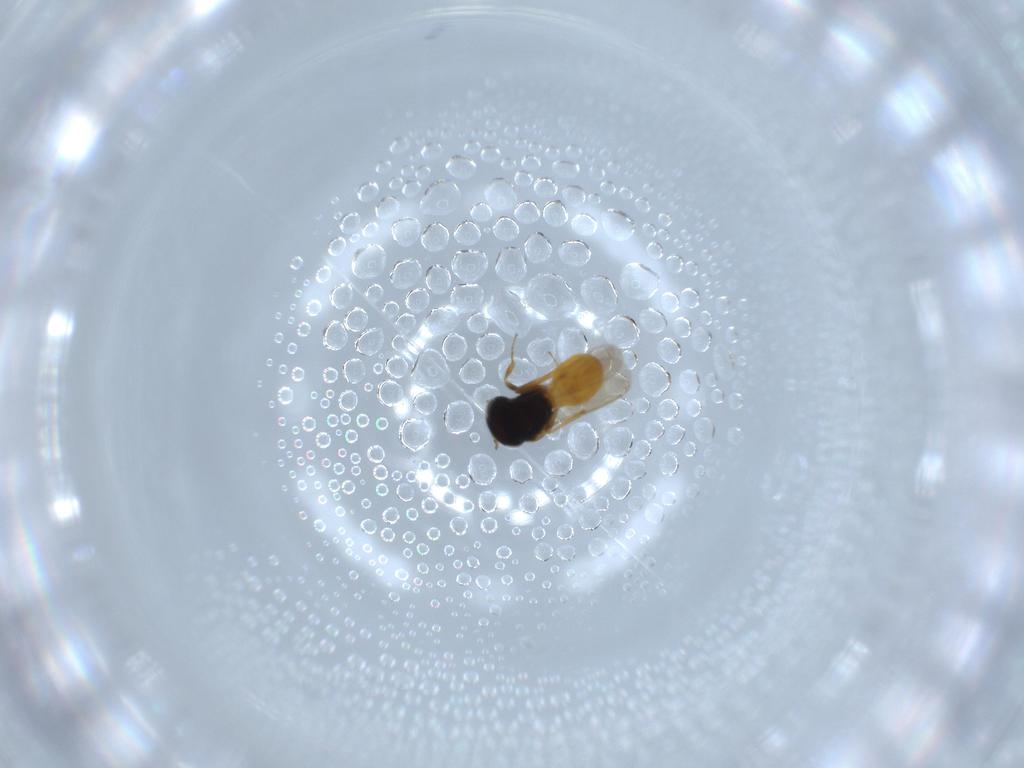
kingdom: Animalia
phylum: Arthropoda
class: Insecta
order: Hymenoptera
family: Scelionidae
